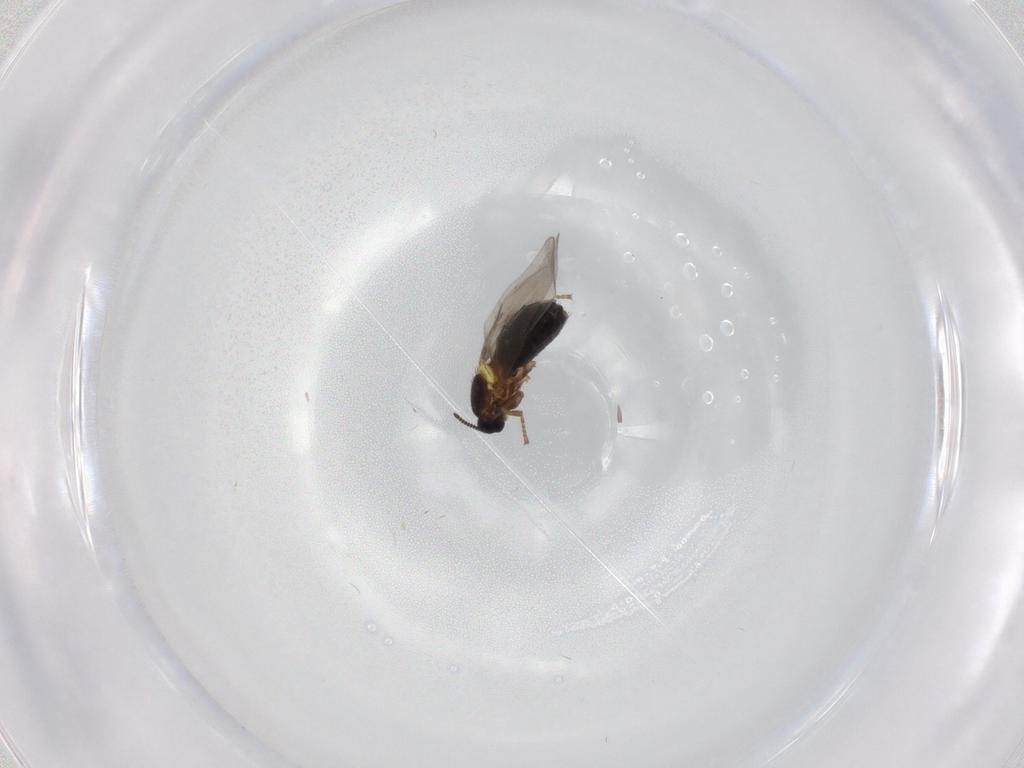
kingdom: Animalia
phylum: Arthropoda
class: Insecta
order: Diptera
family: Scatopsidae
